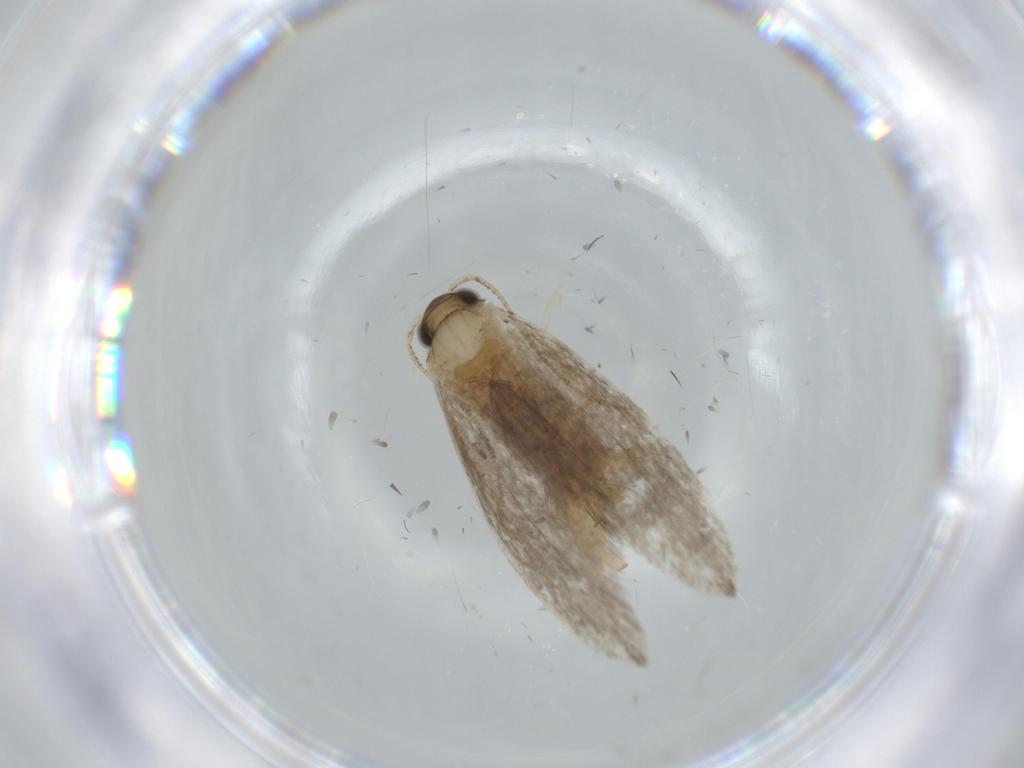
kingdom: Animalia
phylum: Arthropoda
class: Insecta
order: Lepidoptera
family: Tineidae
